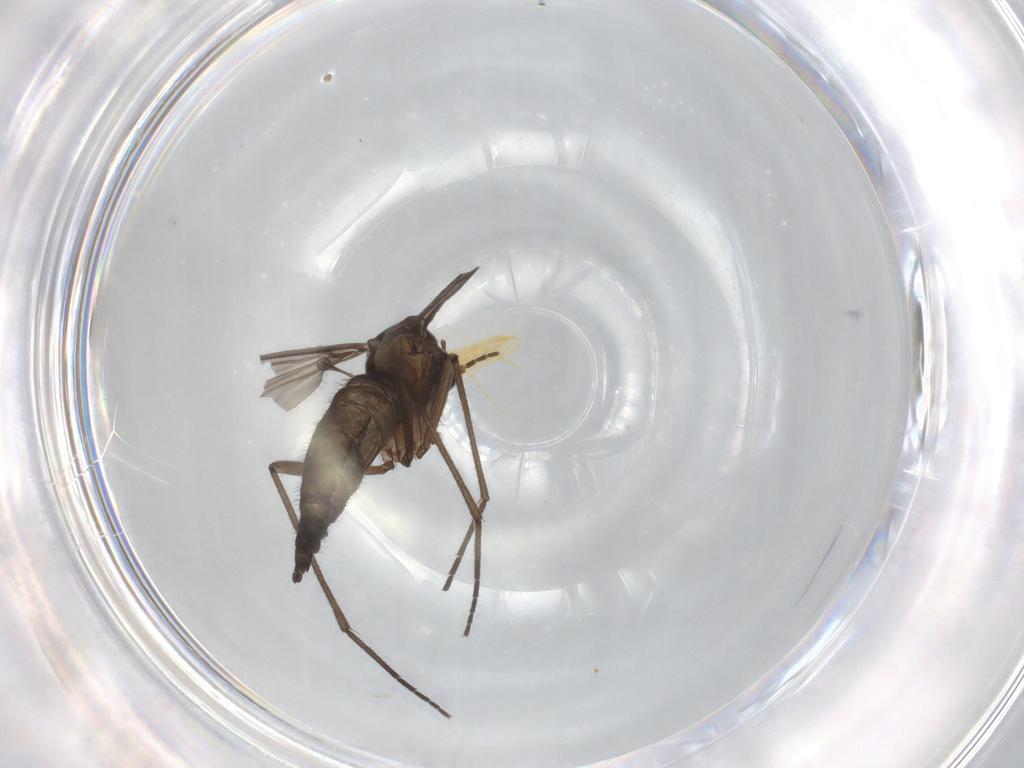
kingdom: Animalia
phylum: Arthropoda
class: Insecta
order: Diptera
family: Sciaridae
